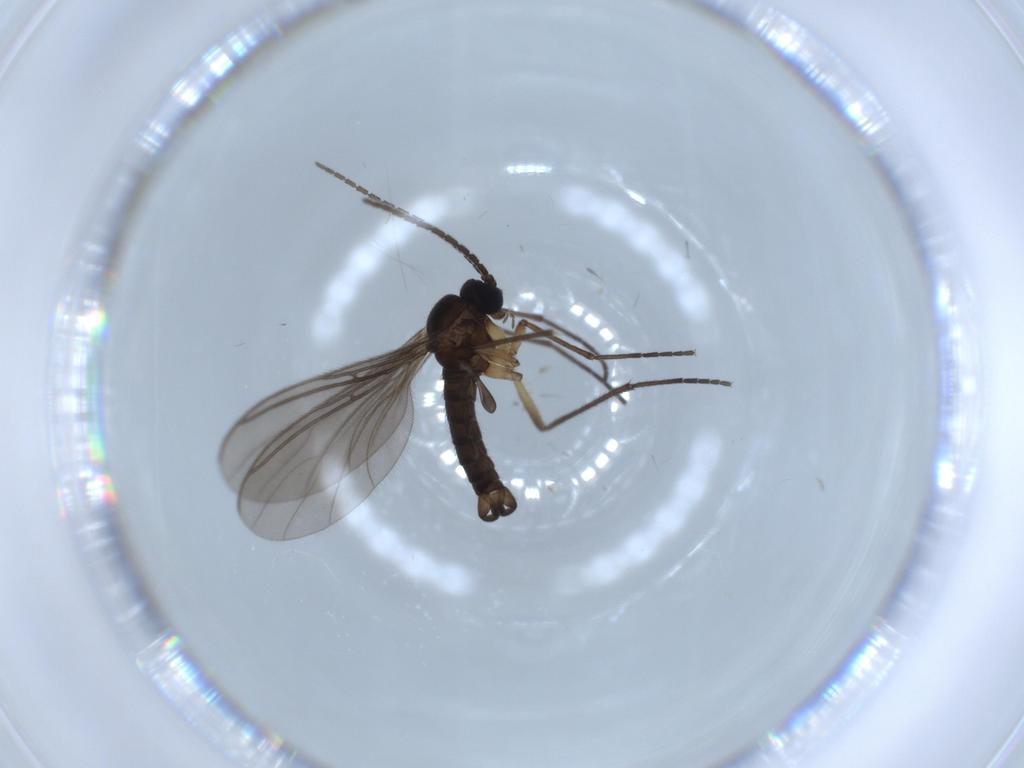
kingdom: Animalia
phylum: Arthropoda
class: Insecta
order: Diptera
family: Sciaridae
